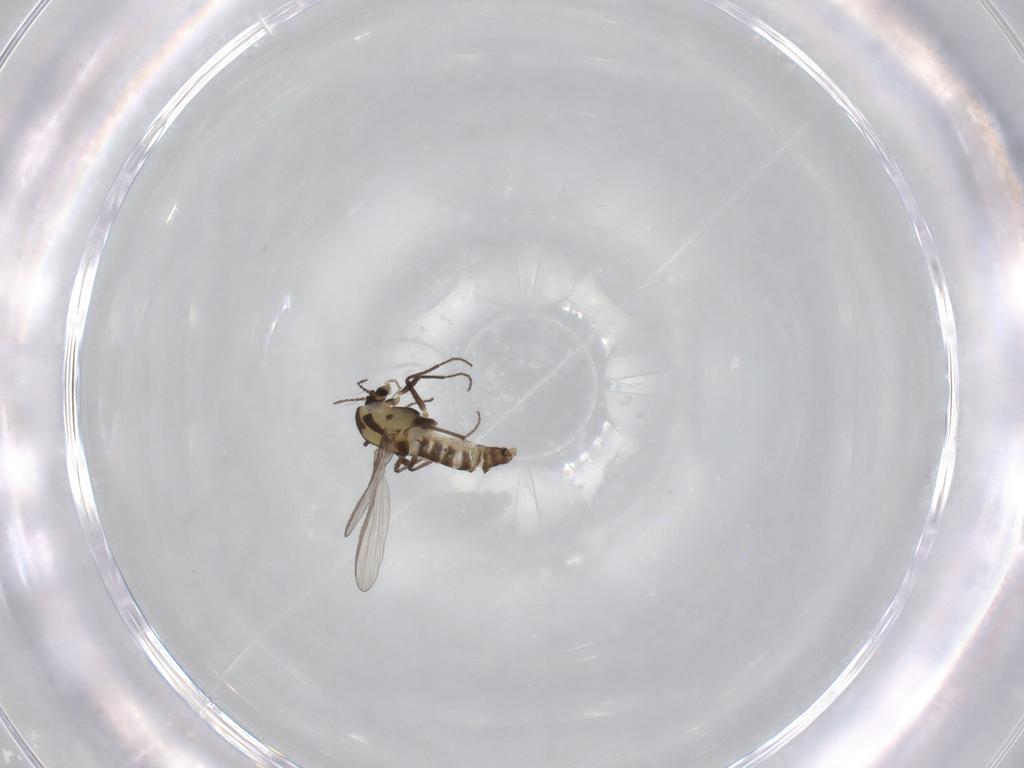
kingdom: Animalia
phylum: Arthropoda
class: Insecta
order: Diptera
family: Chironomidae
